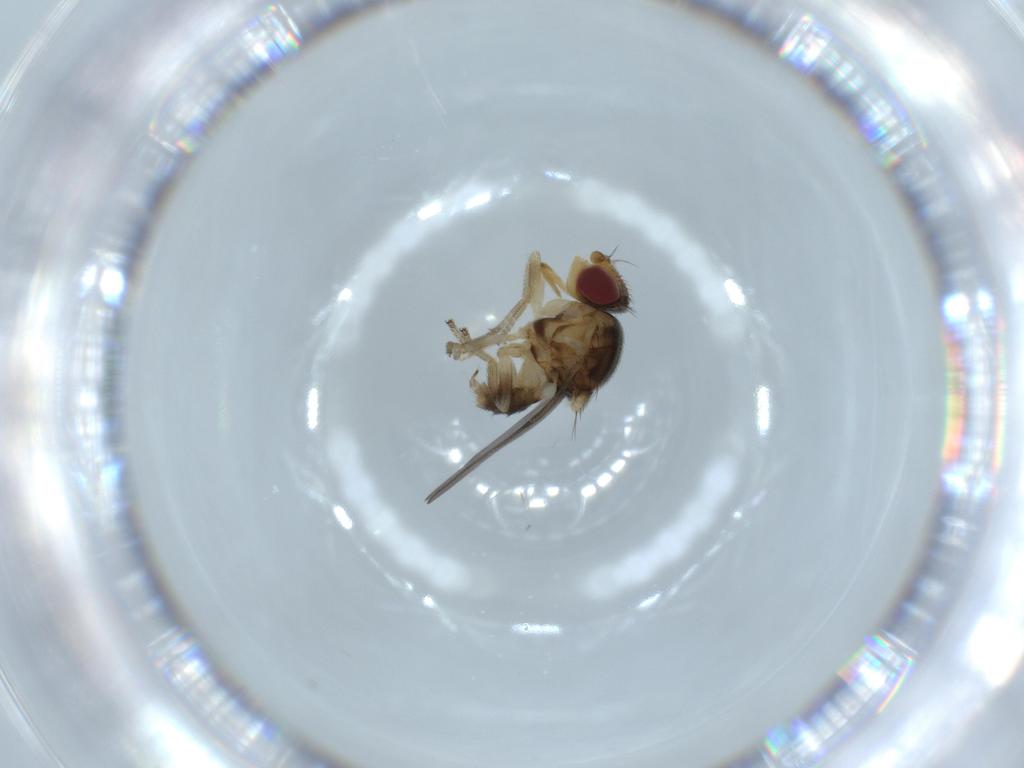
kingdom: Animalia
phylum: Arthropoda
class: Insecta
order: Diptera
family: Chloropidae
